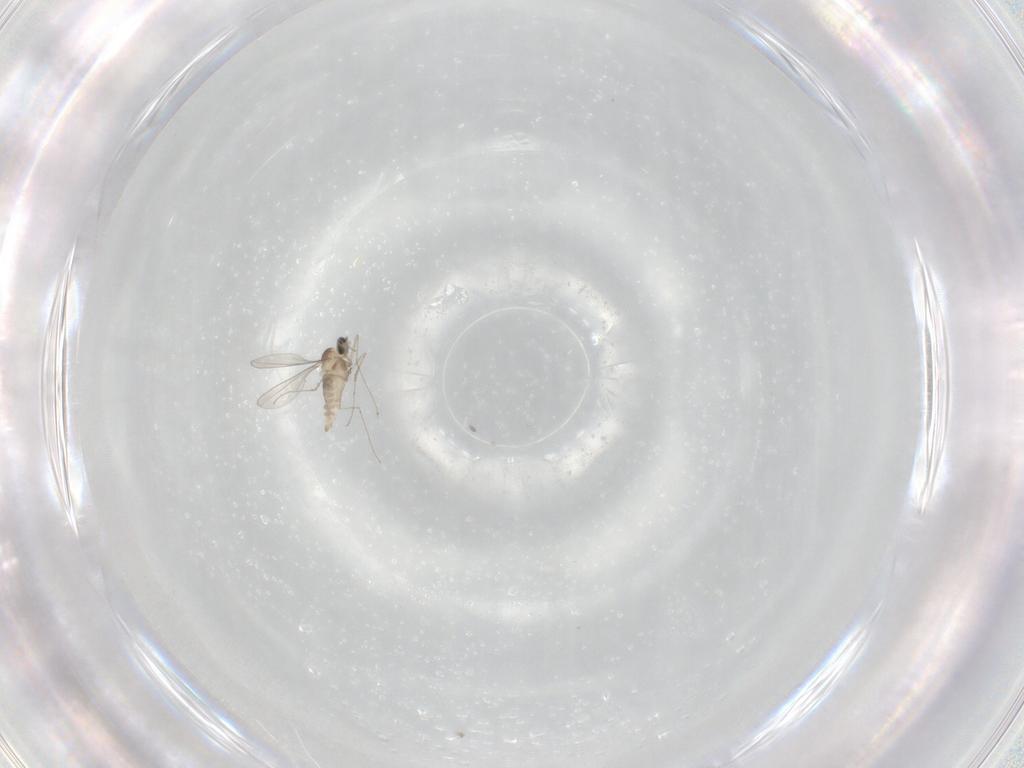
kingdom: Animalia
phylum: Arthropoda
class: Insecta
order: Diptera
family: Cecidomyiidae
